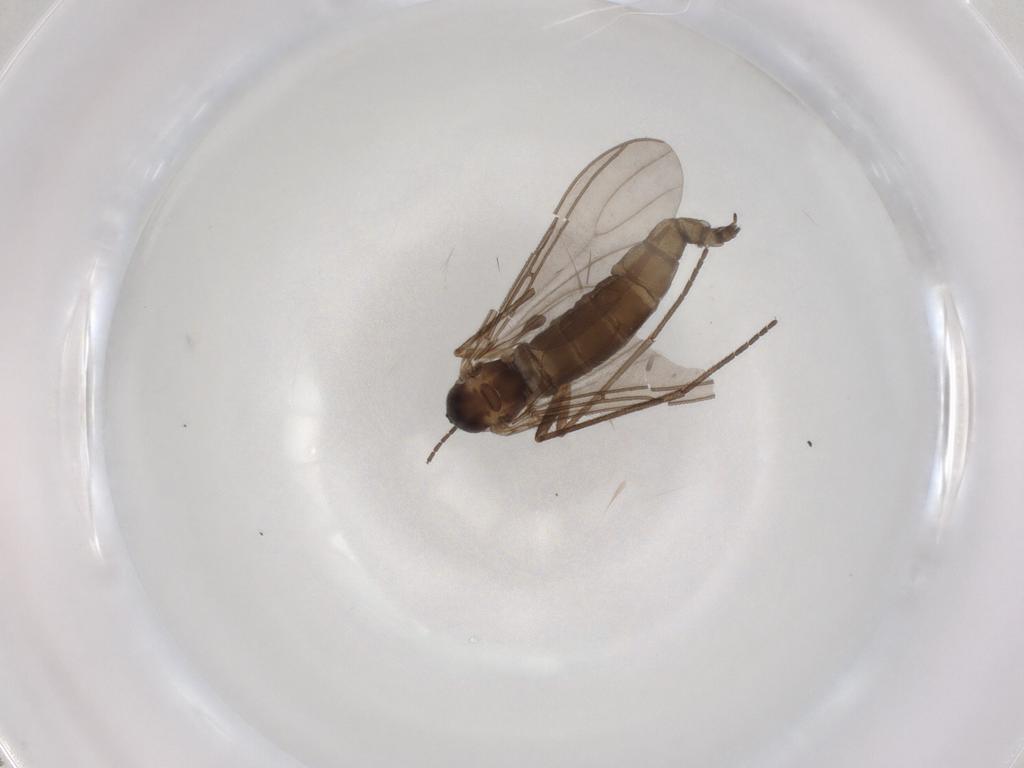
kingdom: Animalia
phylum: Arthropoda
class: Insecta
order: Diptera
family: Sciaridae
